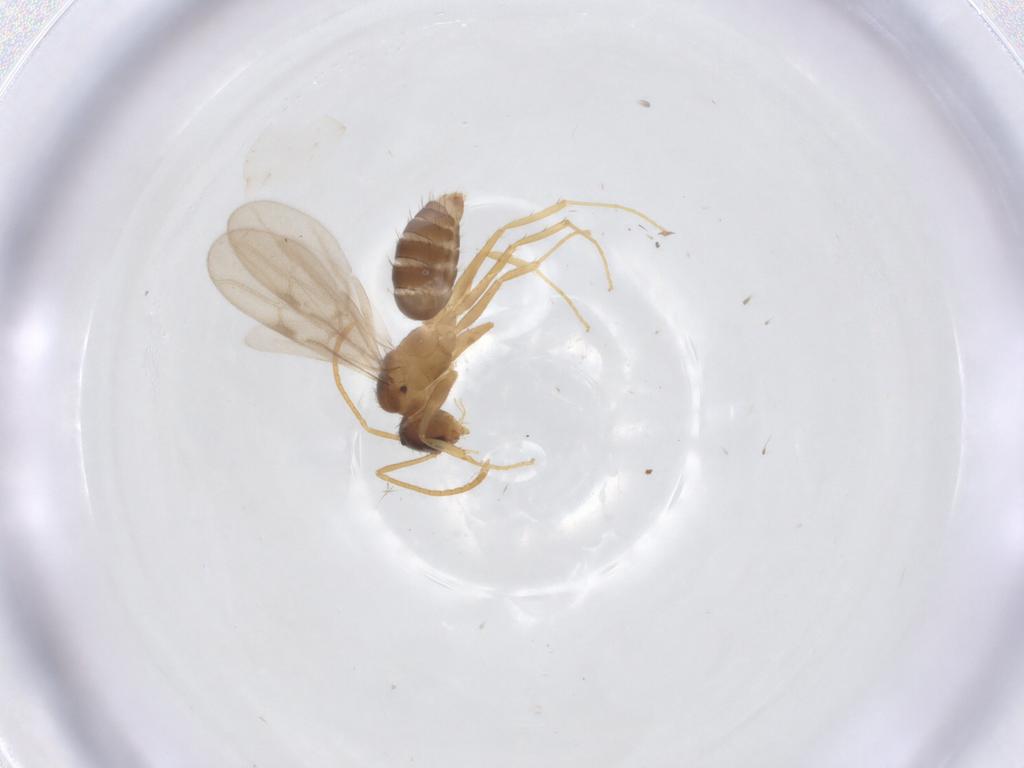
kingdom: Animalia
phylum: Arthropoda
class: Insecta
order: Hymenoptera
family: Formicidae
